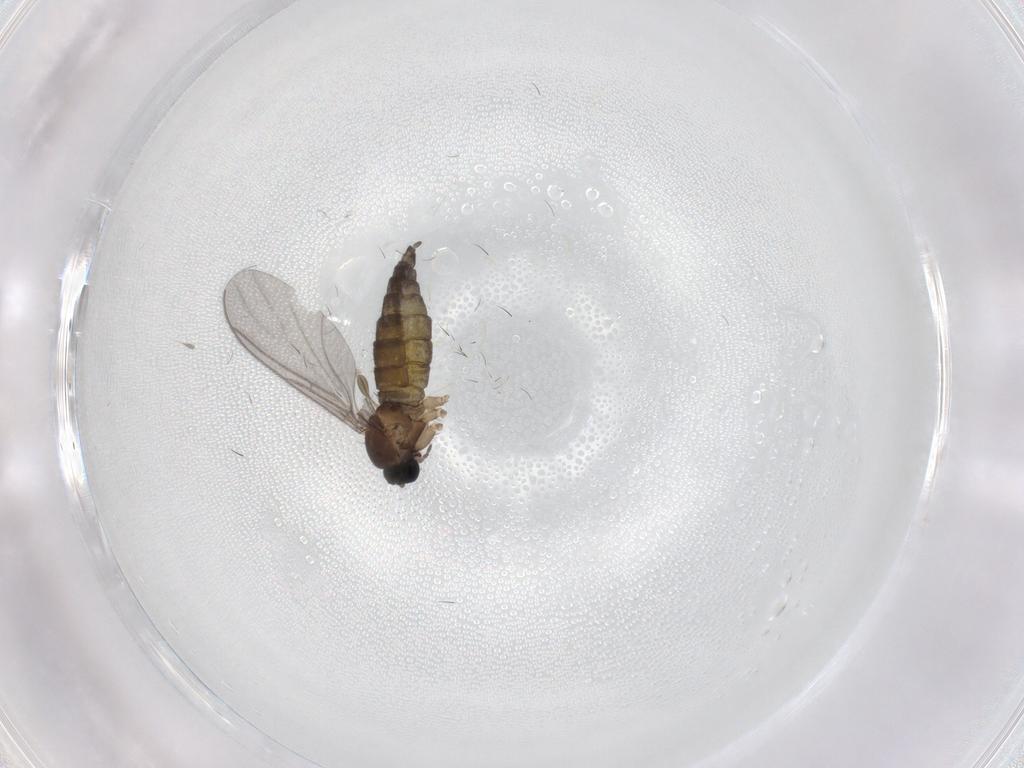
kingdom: Animalia
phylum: Arthropoda
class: Insecta
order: Diptera
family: Sciaridae
